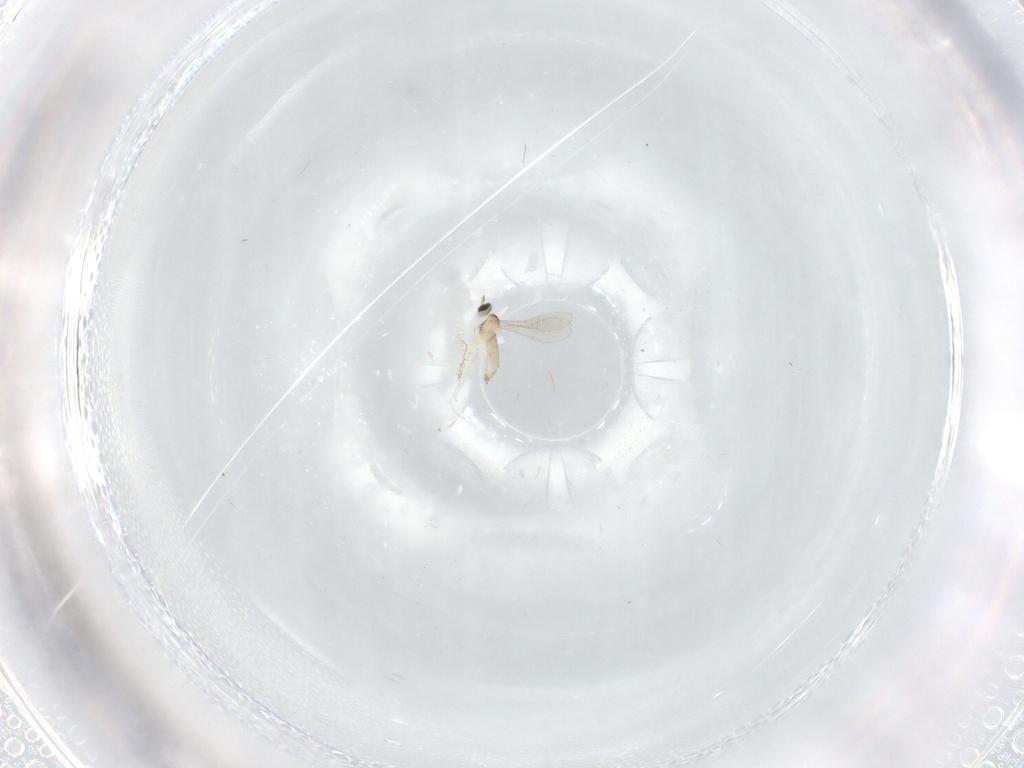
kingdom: Animalia
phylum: Arthropoda
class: Insecta
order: Diptera
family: Cecidomyiidae
